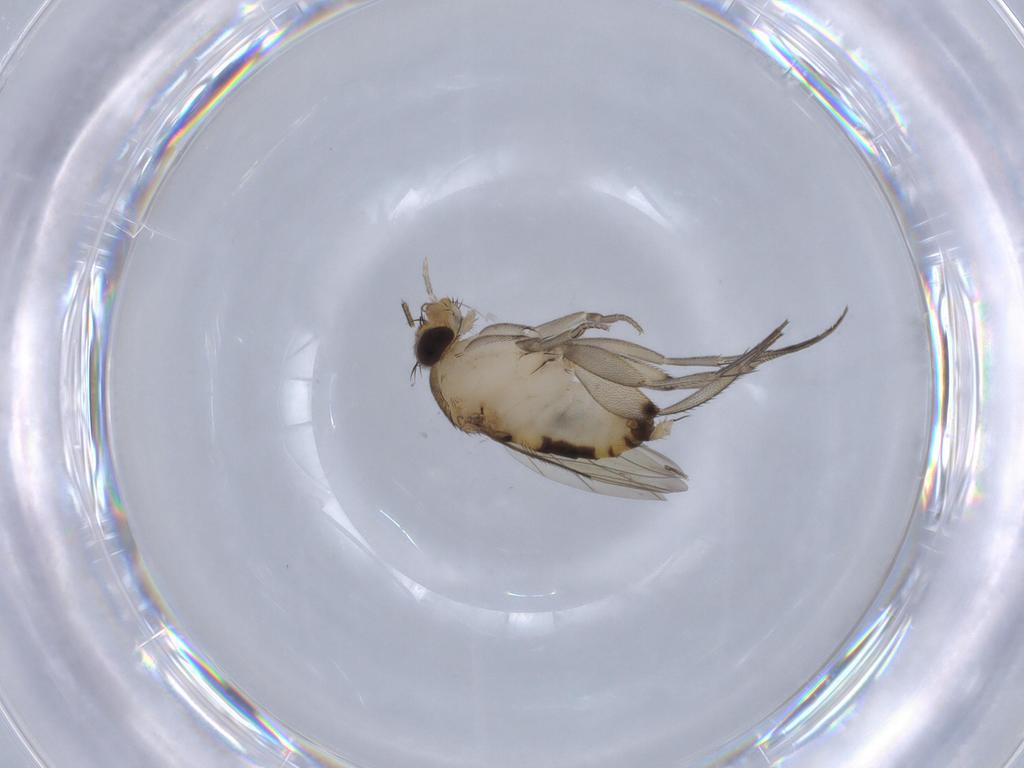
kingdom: Animalia
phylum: Arthropoda
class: Insecta
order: Diptera
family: Phoridae
